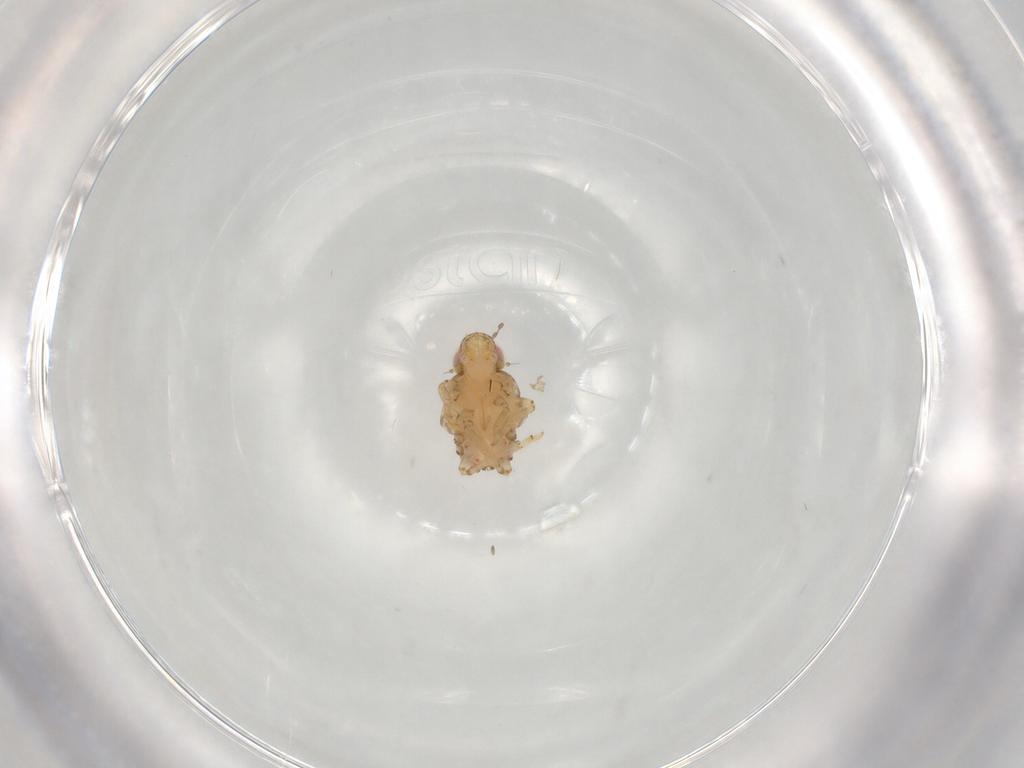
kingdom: Animalia
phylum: Arthropoda
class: Insecta
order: Hemiptera
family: Issidae
